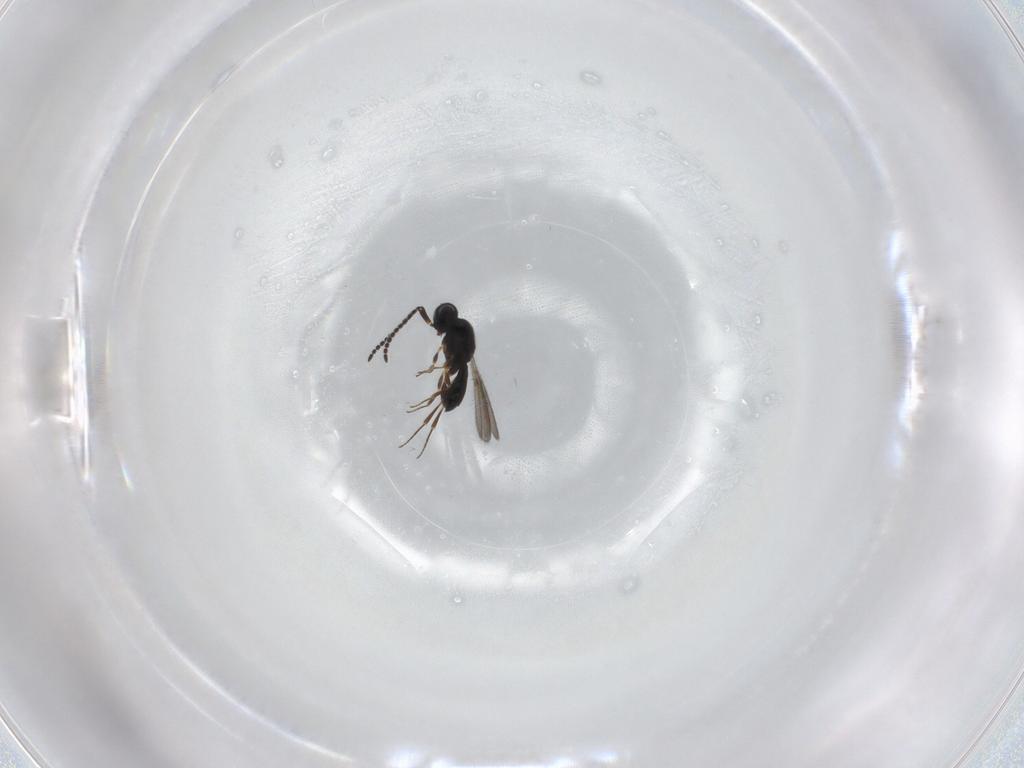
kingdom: Animalia
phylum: Arthropoda
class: Insecta
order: Hymenoptera
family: Scelionidae
